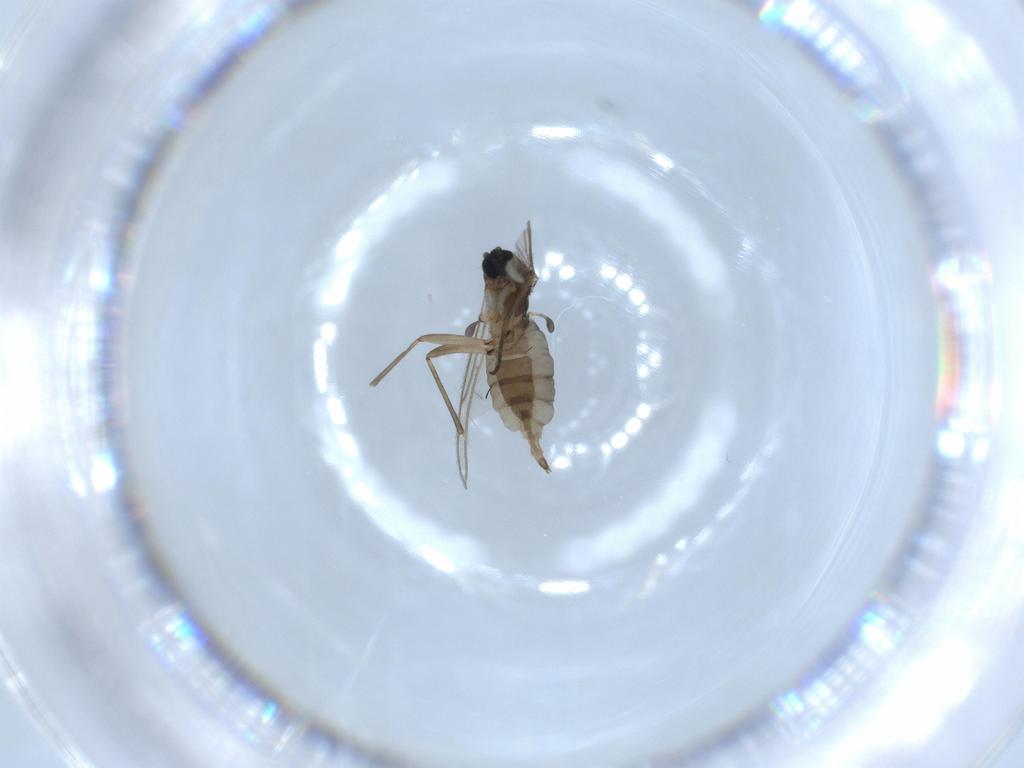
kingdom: Animalia
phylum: Arthropoda
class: Insecta
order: Diptera
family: Sciaridae
